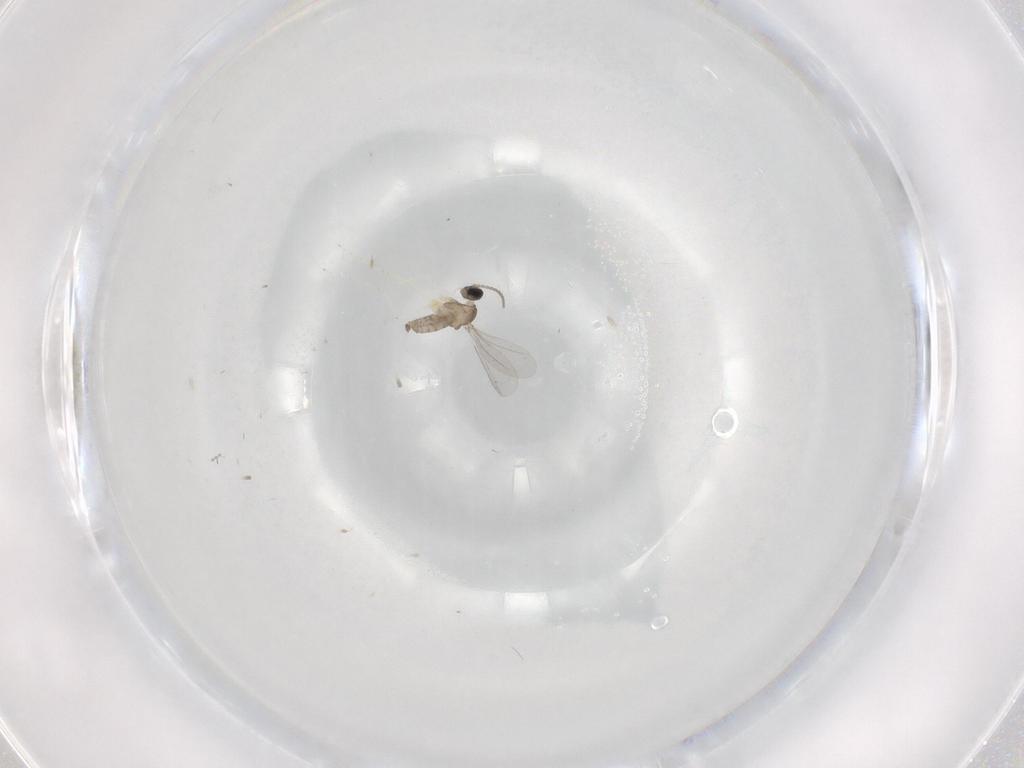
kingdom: Animalia
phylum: Arthropoda
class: Insecta
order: Diptera
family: Cecidomyiidae
